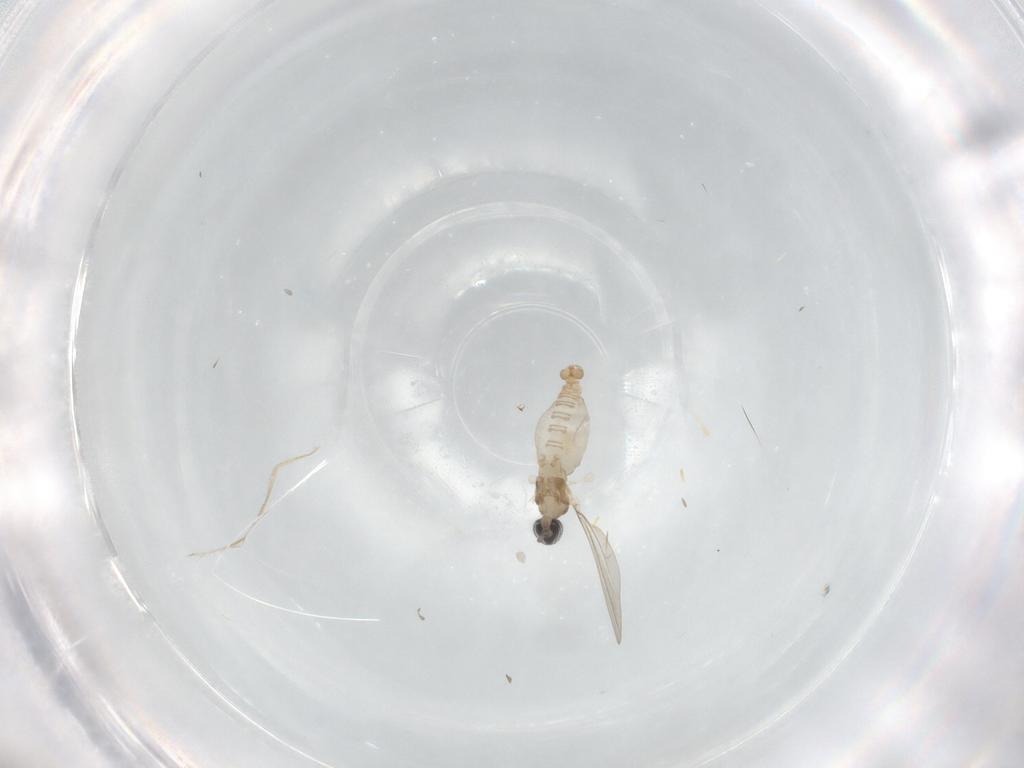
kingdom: Animalia
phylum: Arthropoda
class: Insecta
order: Diptera
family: Cecidomyiidae
